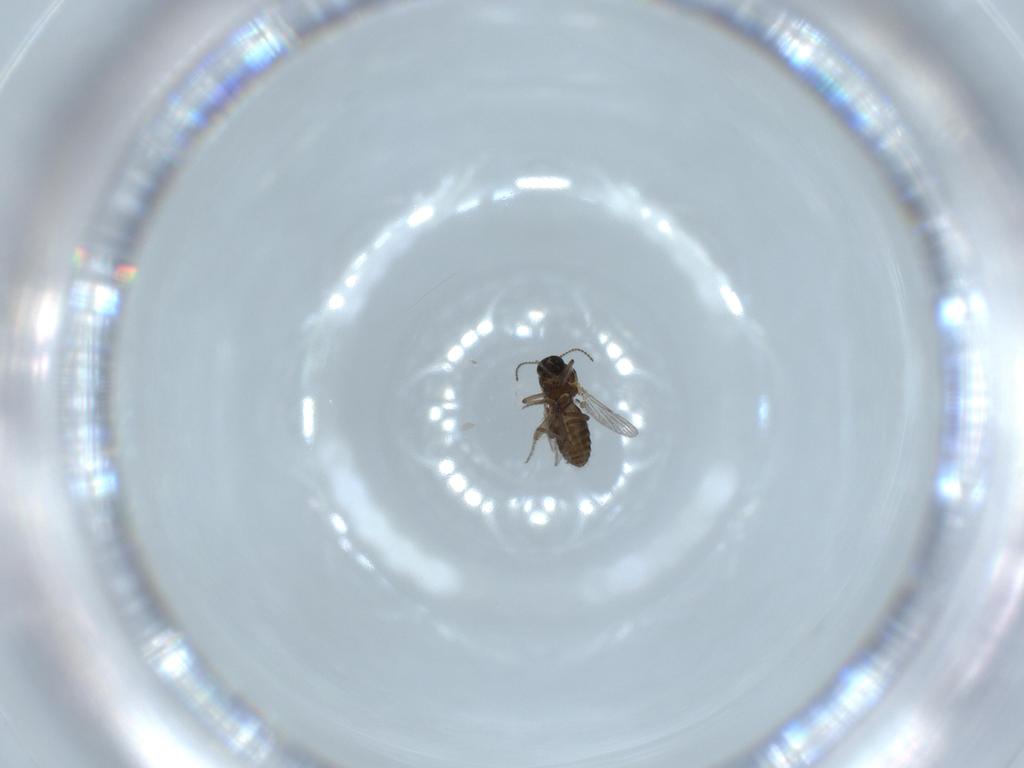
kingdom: Animalia
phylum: Arthropoda
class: Insecta
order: Diptera
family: Ceratopogonidae
